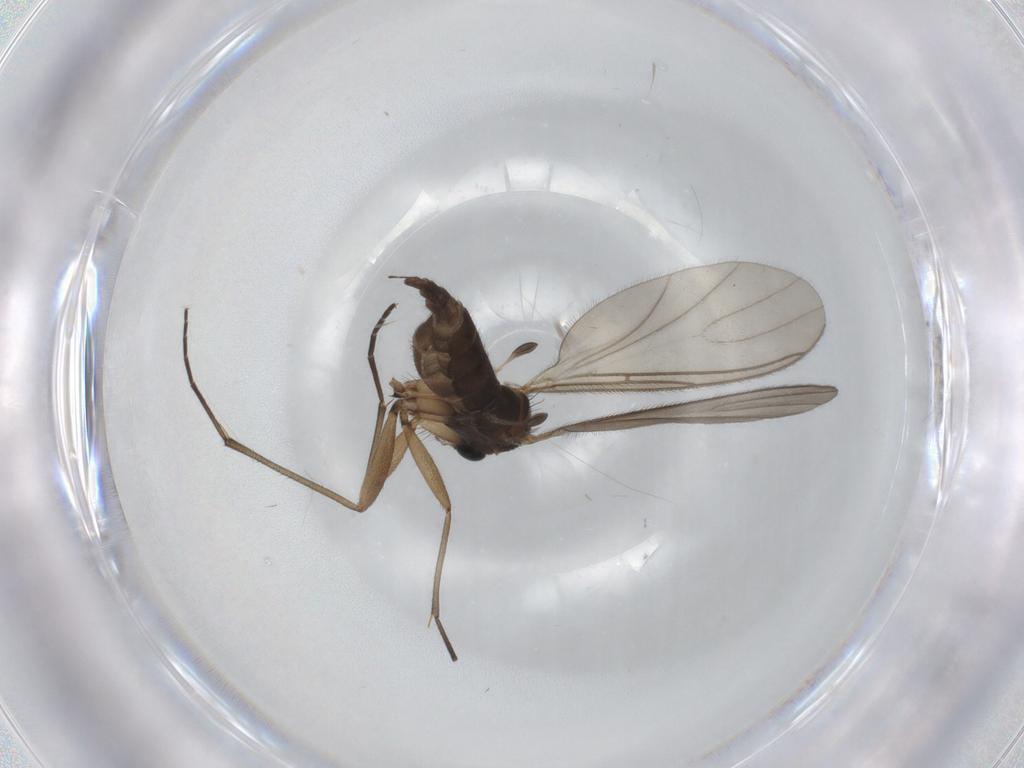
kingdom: Animalia
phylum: Arthropoda
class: Insecta
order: Diptera
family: Sciaridae
